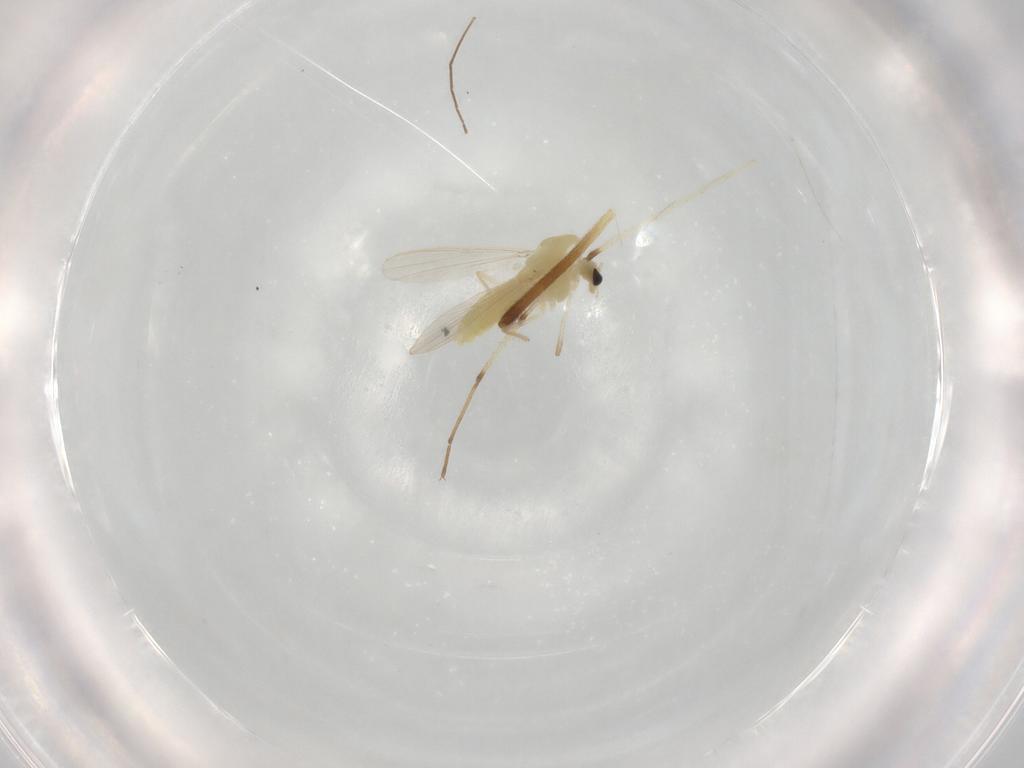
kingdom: Animalia
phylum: Arthropoda
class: Insecta
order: Diptera
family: Chironomidae
